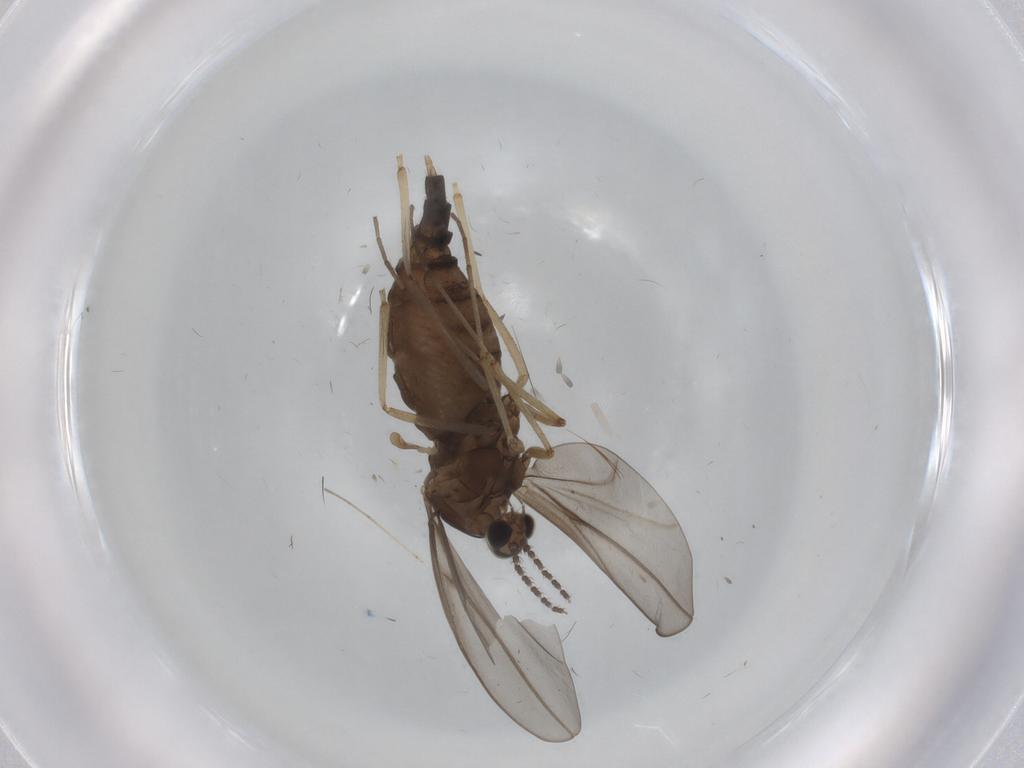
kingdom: Animalia
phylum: Arthropoda
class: Insecta
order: Diptera
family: Cecidomyiidae
